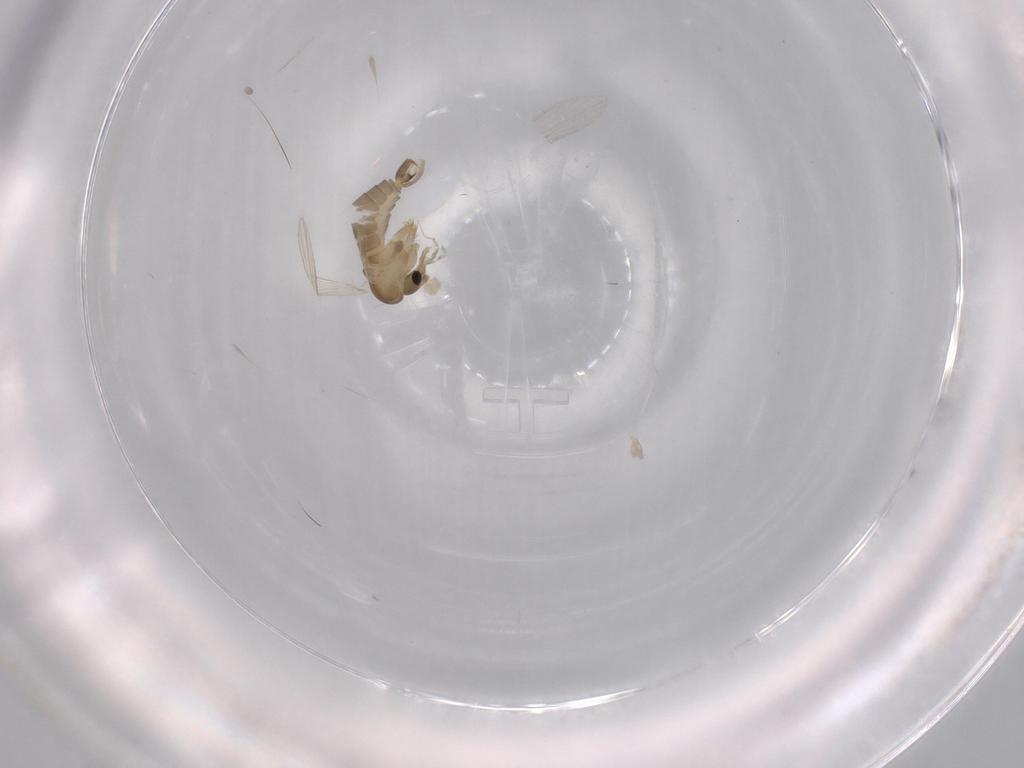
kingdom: Animalia
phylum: Arthropoda
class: Insecta
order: Diptera
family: Psychodidae
